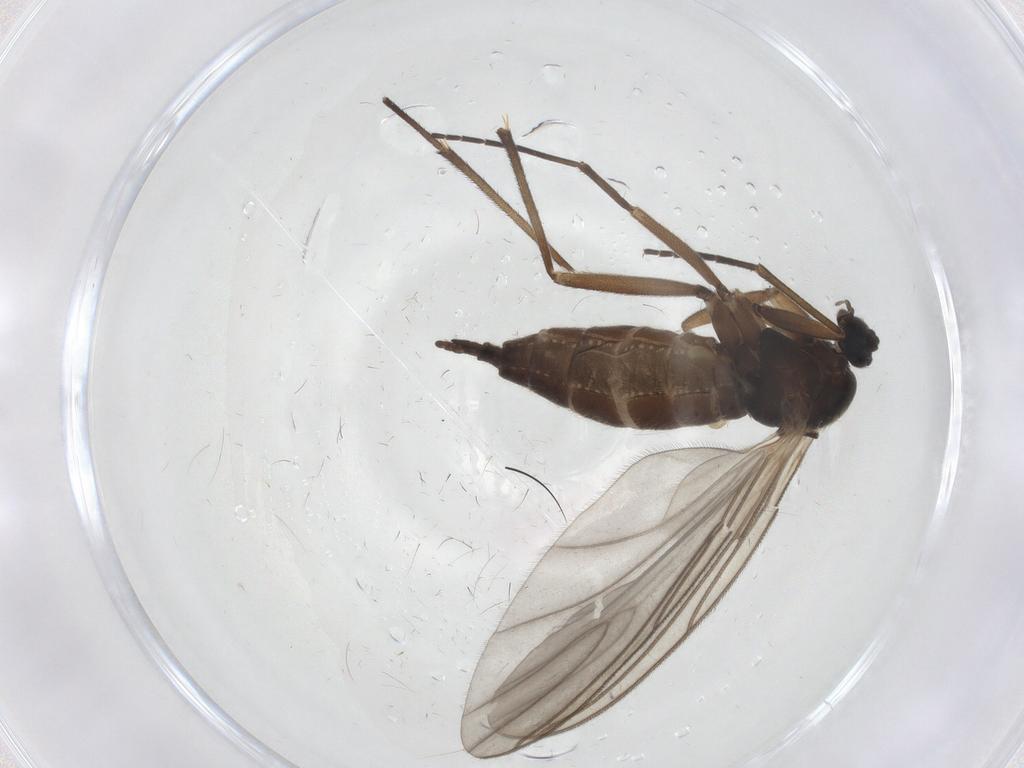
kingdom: Animalia
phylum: Arthropoda
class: Insecta
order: Diptera
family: Sciaridae
